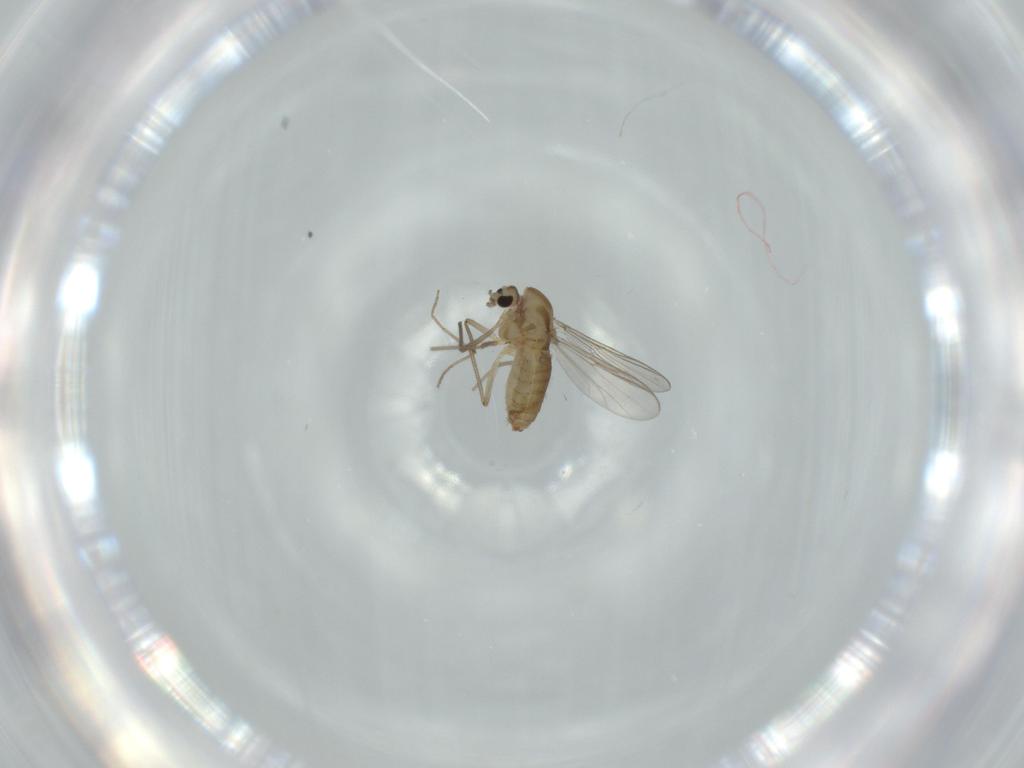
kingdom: Animalia
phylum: Arthropoda
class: Insecta
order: Diptera
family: Chironomidae
